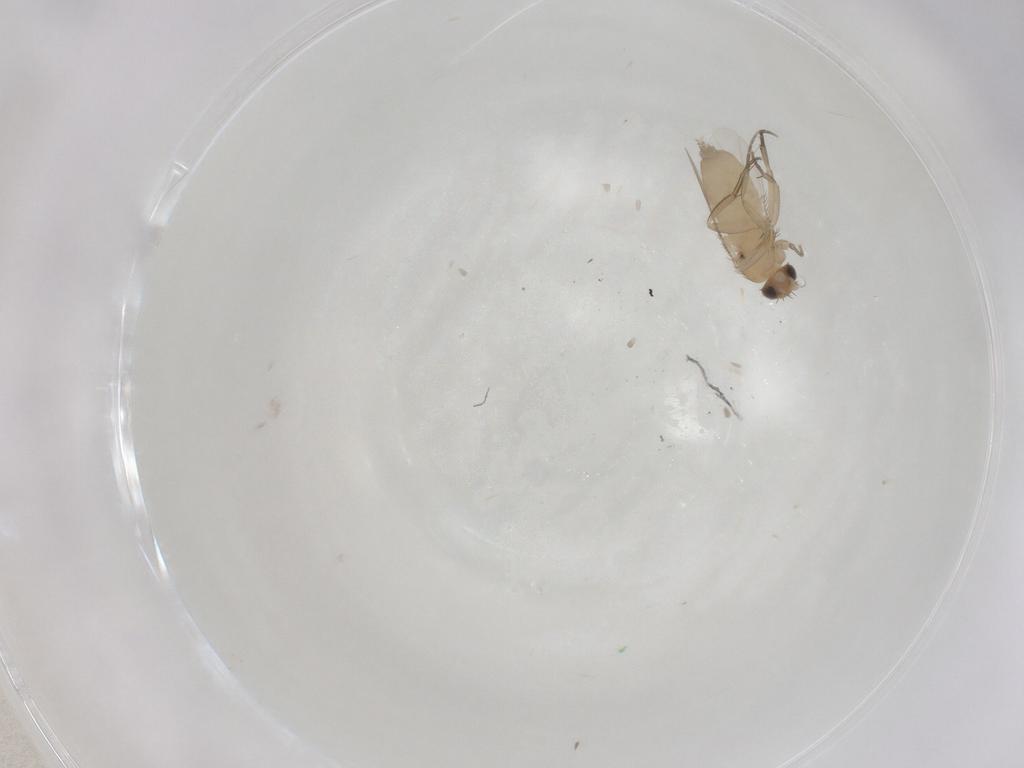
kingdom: Animalia
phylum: Arthropoda
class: Insecta
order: Diptera
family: Phoridae
